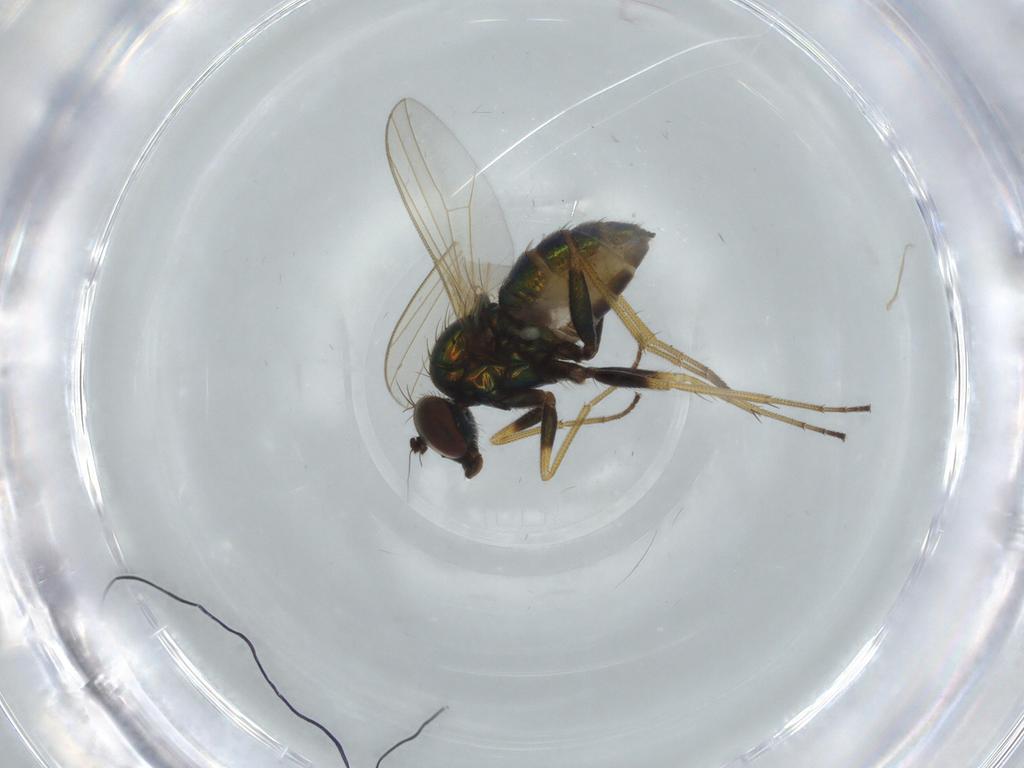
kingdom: Animalia
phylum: Arthropoda
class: Insecta
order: Diptera
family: Dolichopodidae
